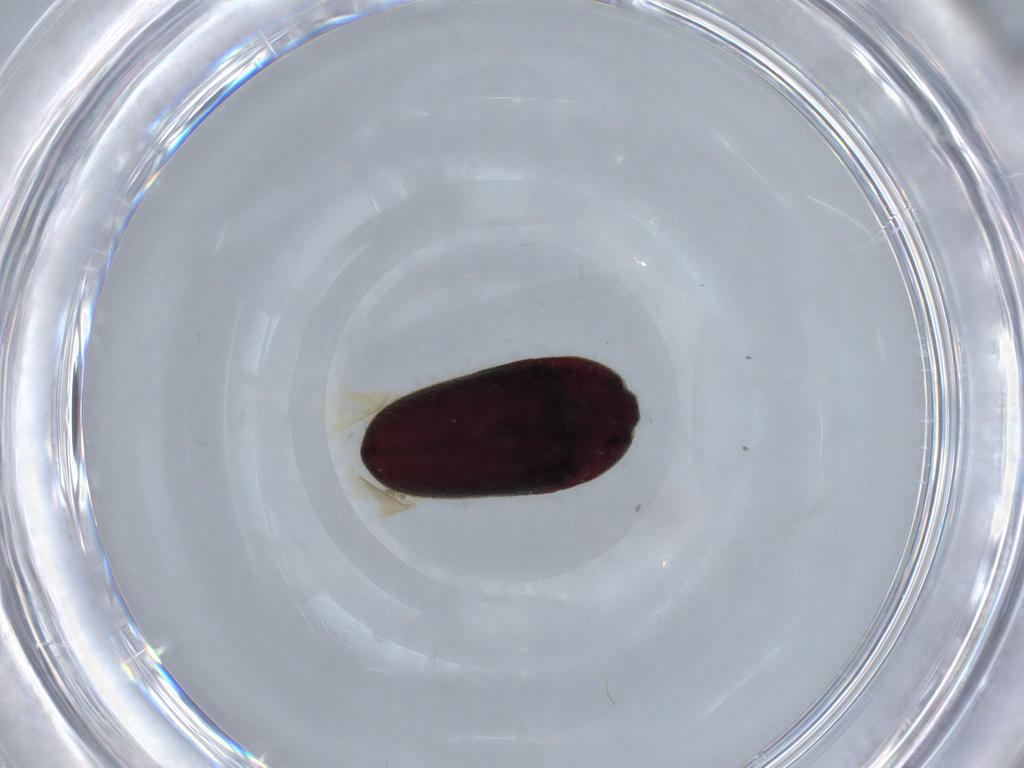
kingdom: Animalia
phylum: Arthropoda
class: Insecta
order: Coleoptera
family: Throscidae
